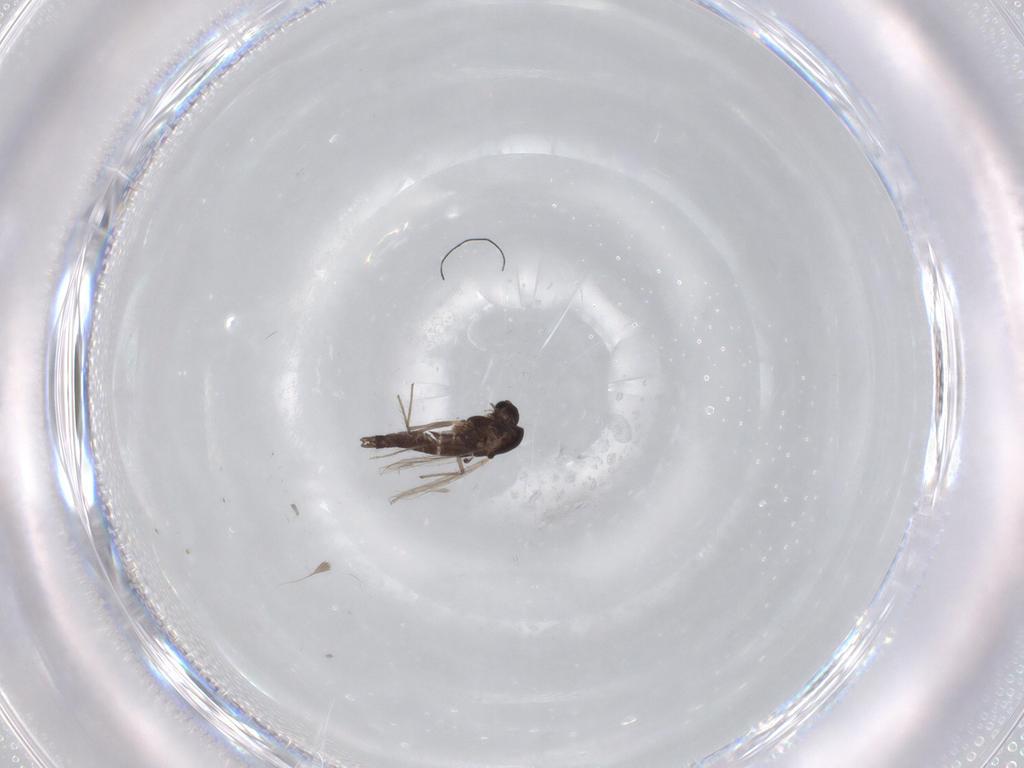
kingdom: Animalia
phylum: Arthropoda
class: Insecta
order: Diptera
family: Chironomidae
